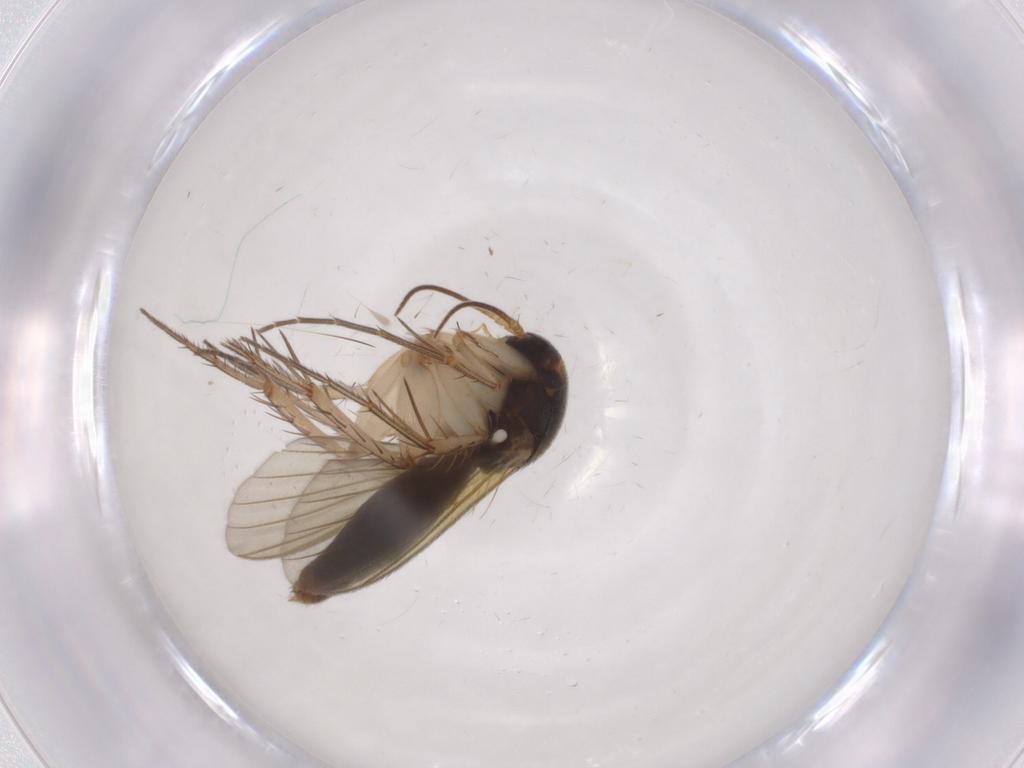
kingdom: Animalia
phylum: Arthropoda
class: Insecta
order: Diptera
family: Mycetophilidae
